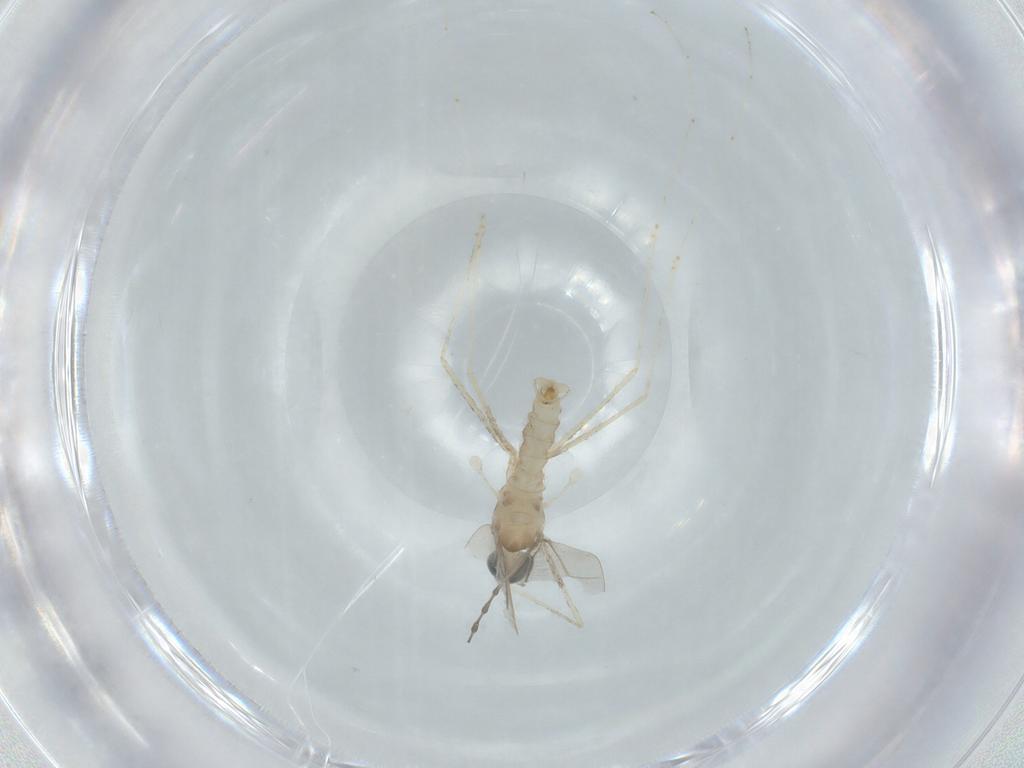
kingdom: Animalia
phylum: Arthropoda
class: Insecta
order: Diptera
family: Cecidomyiidae
